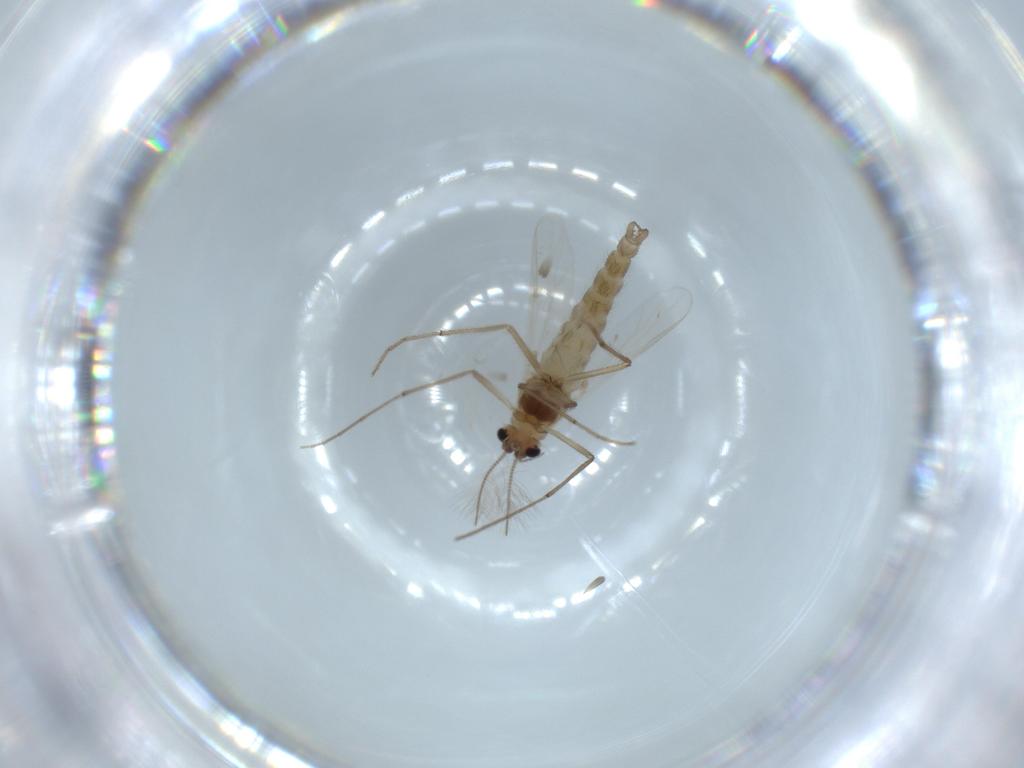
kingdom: Animalia
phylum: Arthropoda
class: Insecta
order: Diptera
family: Chironomidae
